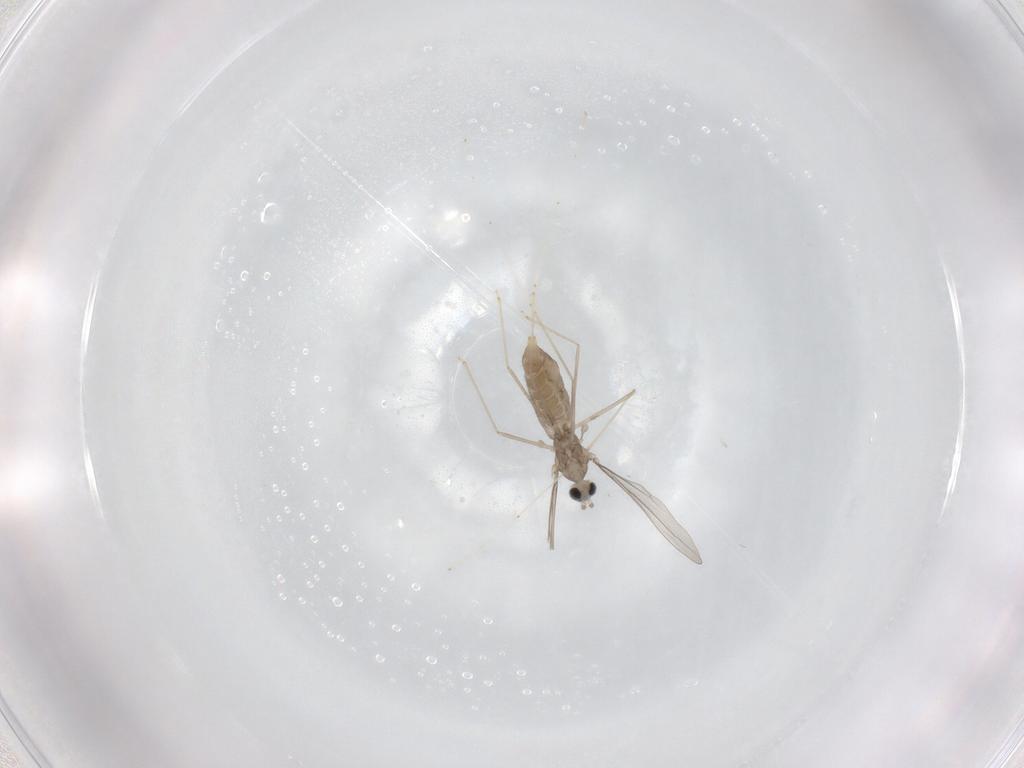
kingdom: Animalia
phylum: Arthropoda
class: Insecta
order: Diptera
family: Cecidomyiidae
